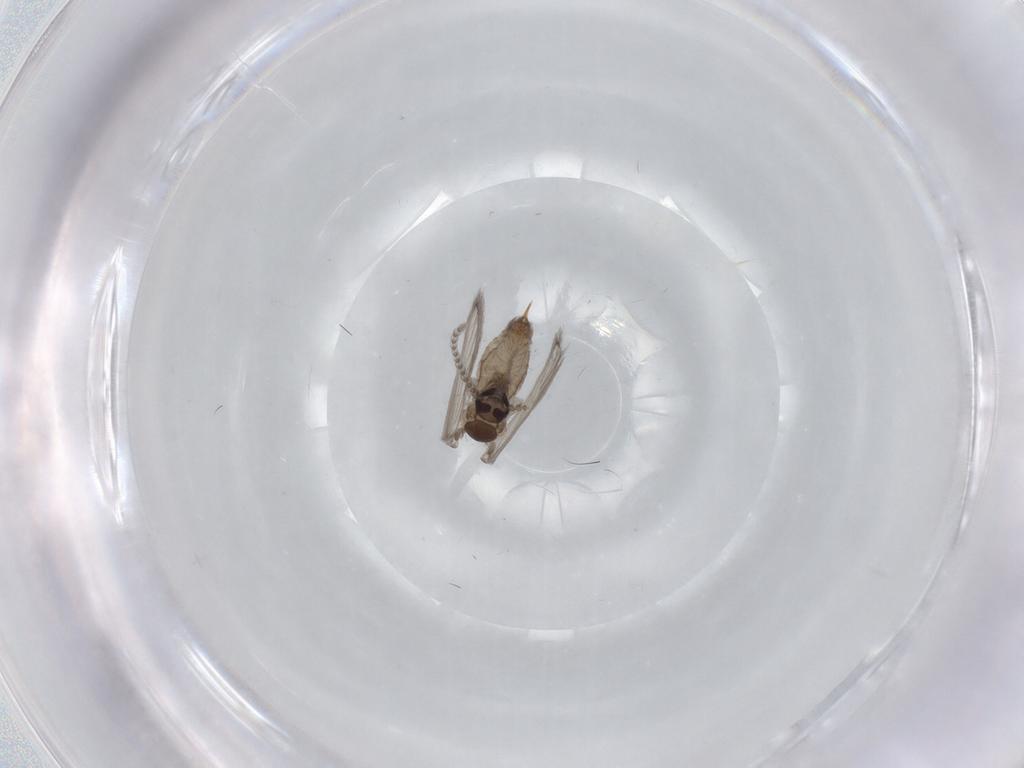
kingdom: Animalia
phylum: Arthropoda
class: Insecta
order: Diptera
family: Psychodidae
